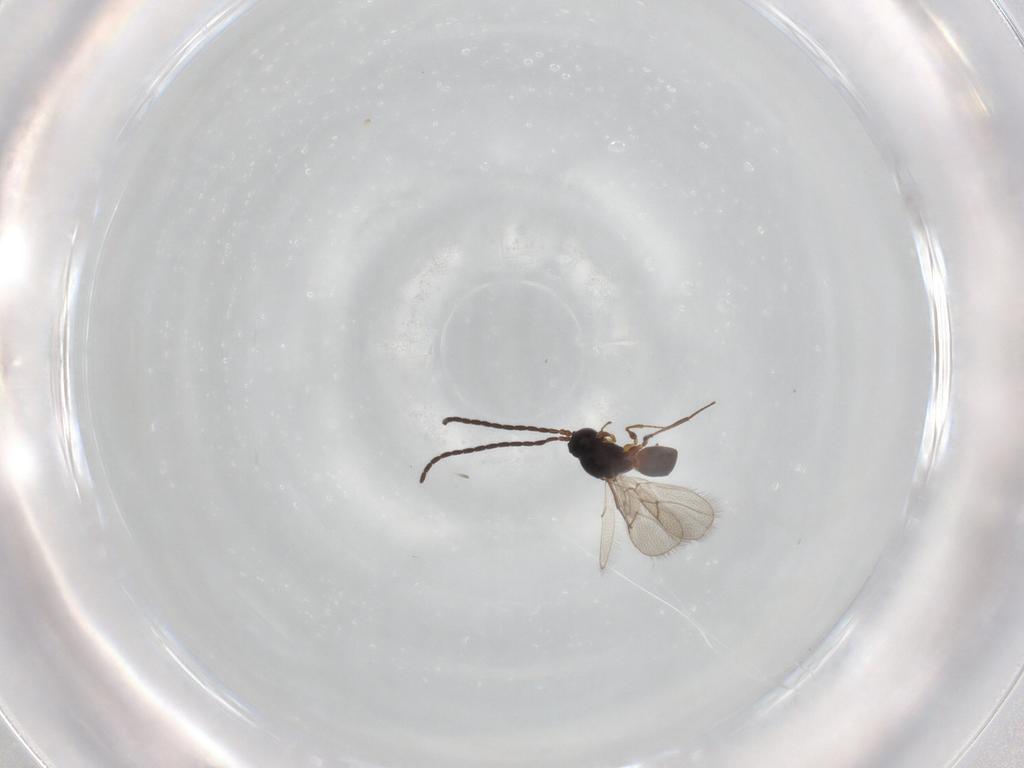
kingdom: Animalia
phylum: Arthropoda
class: Insecta
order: Hymenoptera
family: Figitidae
